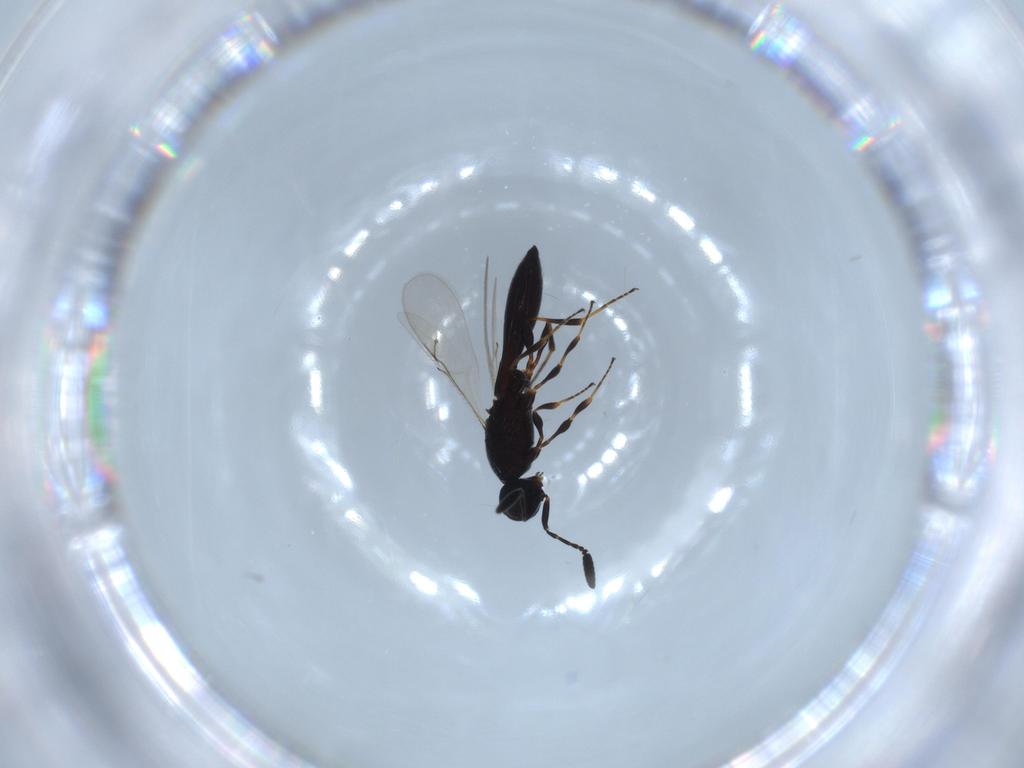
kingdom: Animalia
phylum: Arthropoda
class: Insecta
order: Hymenoptera
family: Scelionidae
